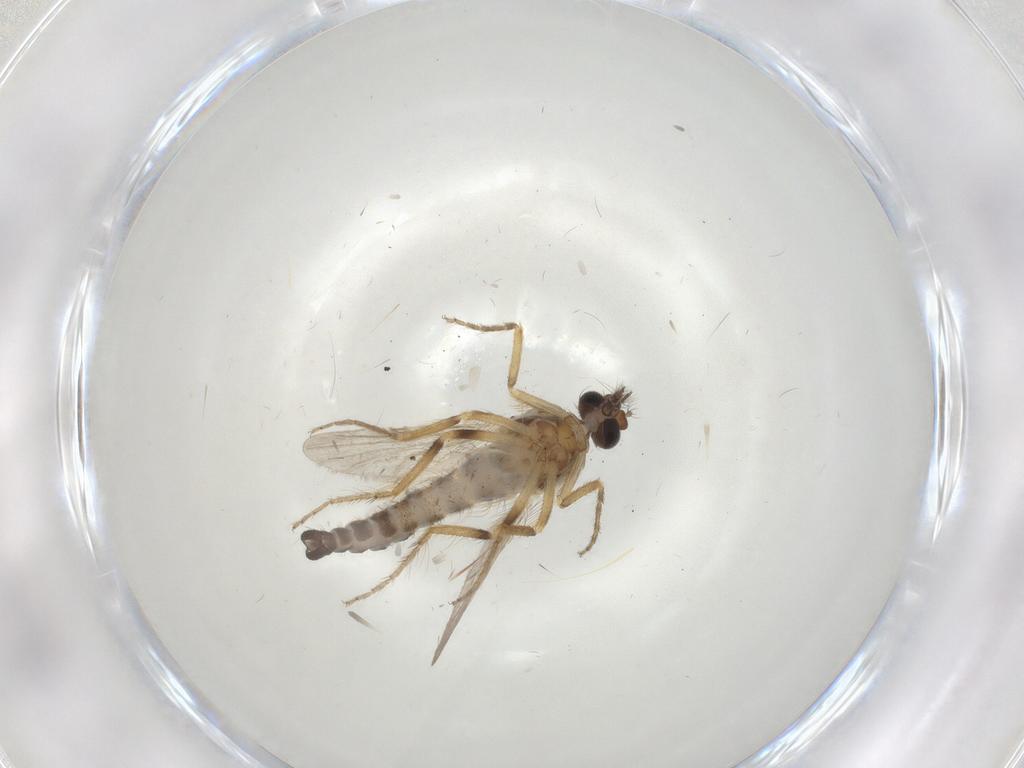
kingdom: Animalia
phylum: Arthropoda
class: Insecta
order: Diptera
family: Ceratopogonidae
